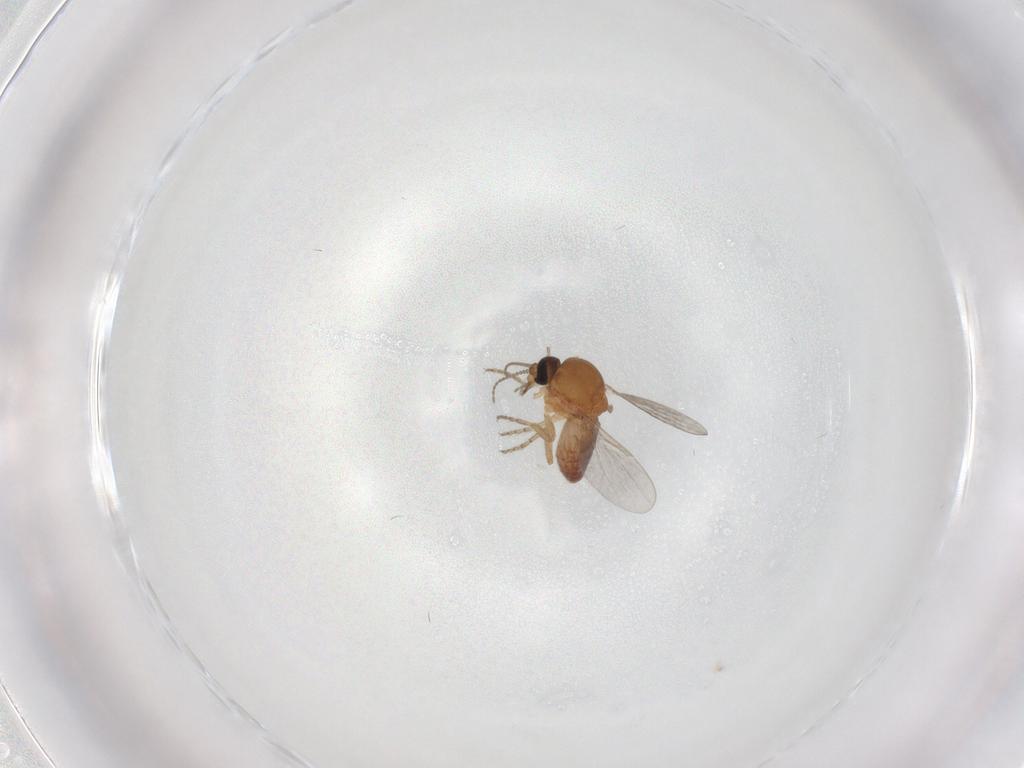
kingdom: Animalia
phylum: Arthropoda
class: Insecta
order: Diptera
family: Ceratopogonidae
